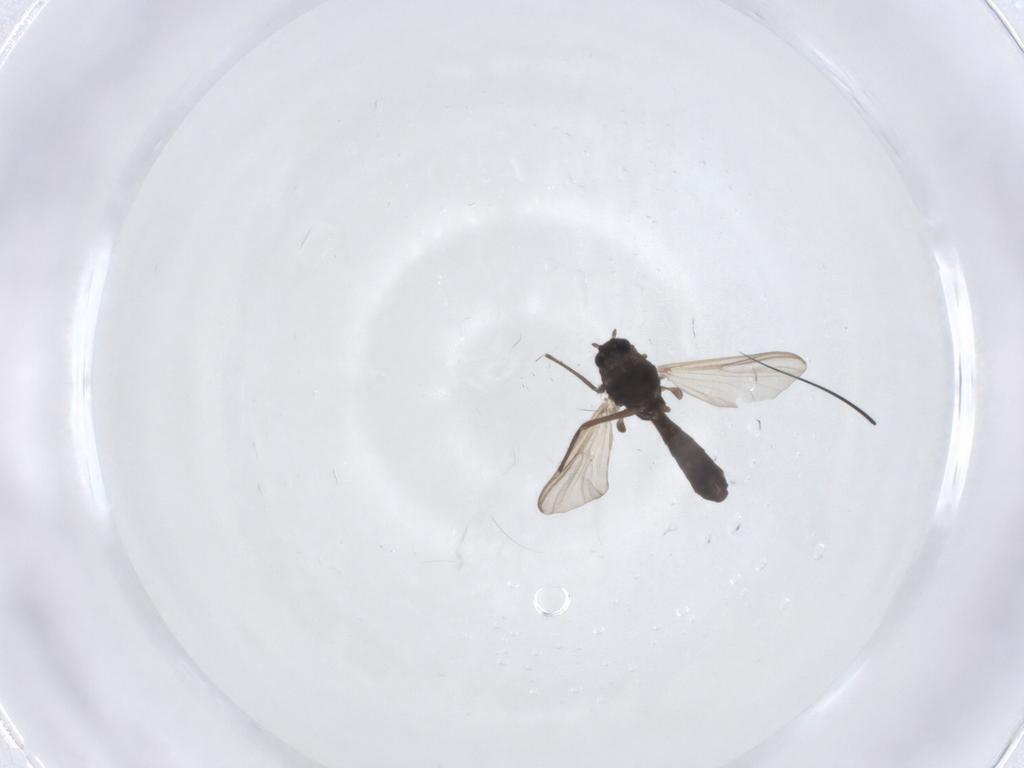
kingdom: Animalia
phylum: Arthropoda
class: Insecta
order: Diptera
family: Chironomidae
